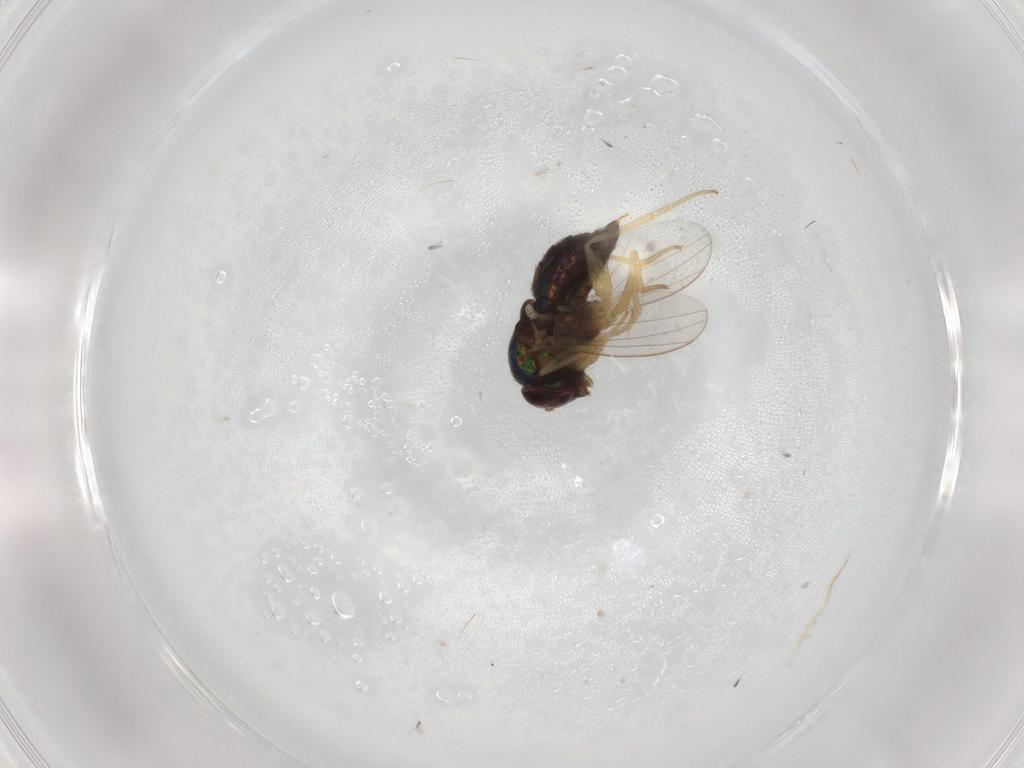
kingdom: Animalia
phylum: Arthropoda
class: Insecta
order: Diptera
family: Dolichopodidae
